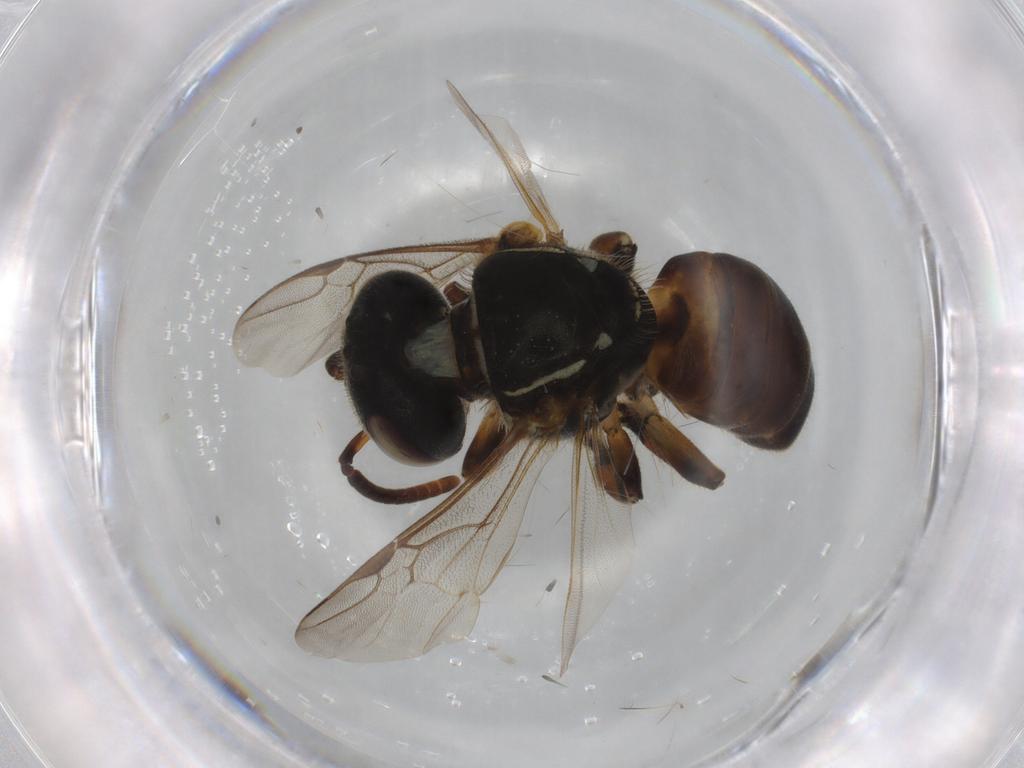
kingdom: Animalia
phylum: Arthropoda
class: Insecta
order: Hymenoptera
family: Apidae
